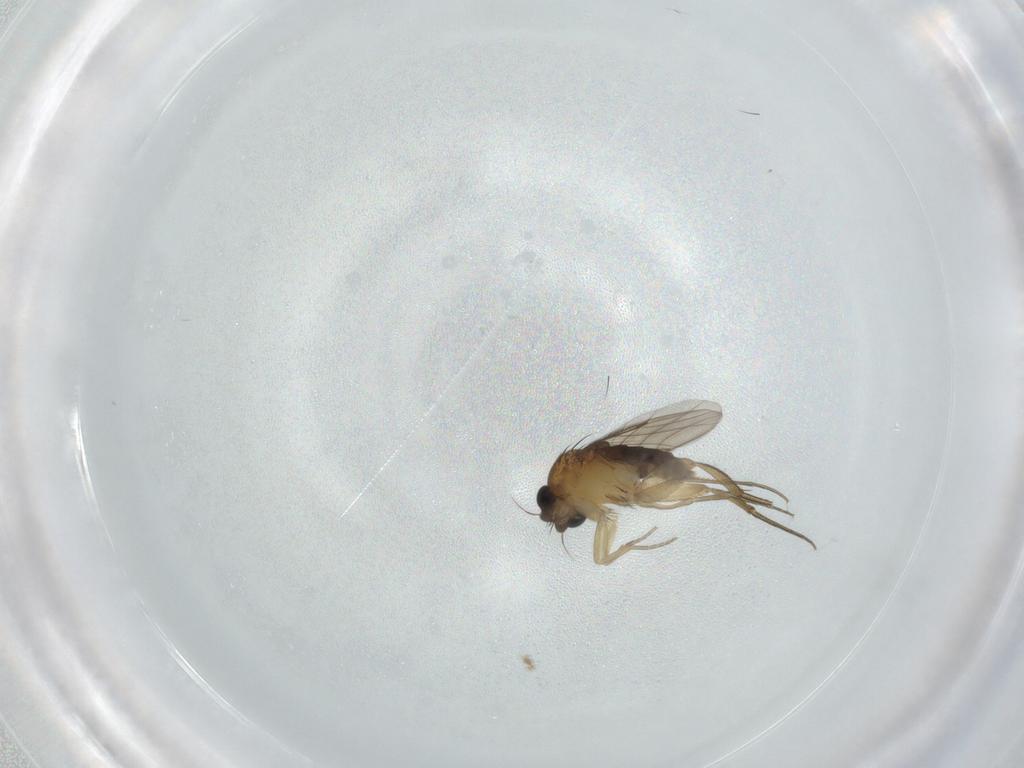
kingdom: Animalia
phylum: Arthropoda
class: Insecta
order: Diptera
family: Phoridae
